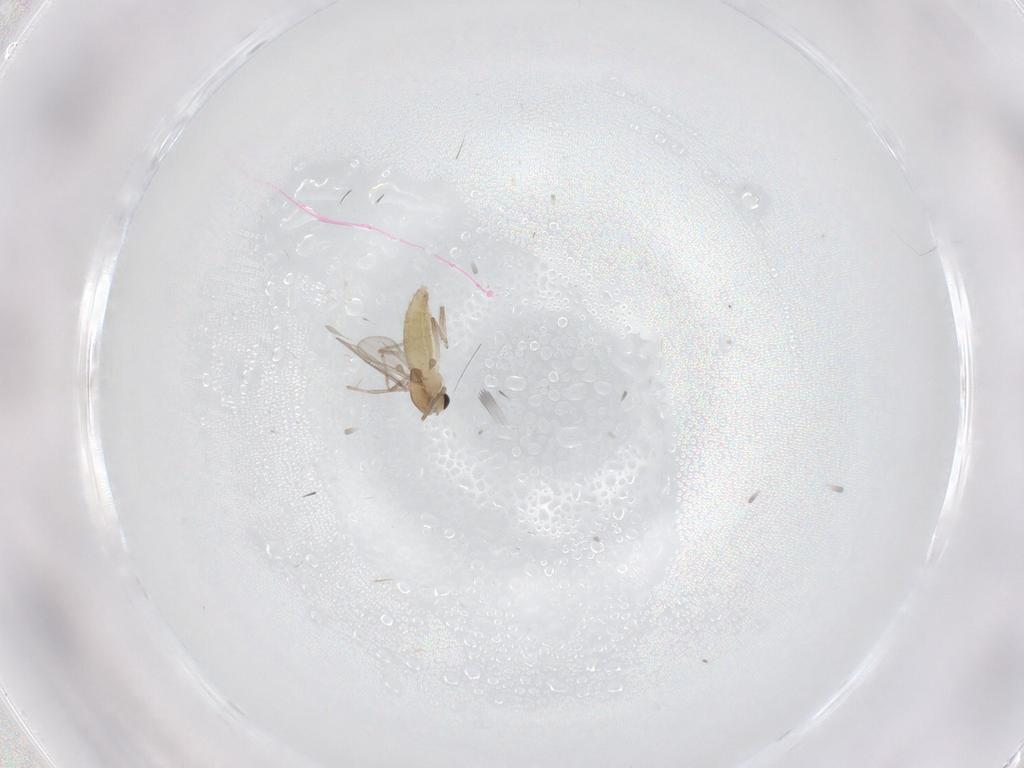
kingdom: Animalia
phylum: Arthropoda
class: Insecta
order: Diptera
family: Chironomidae
